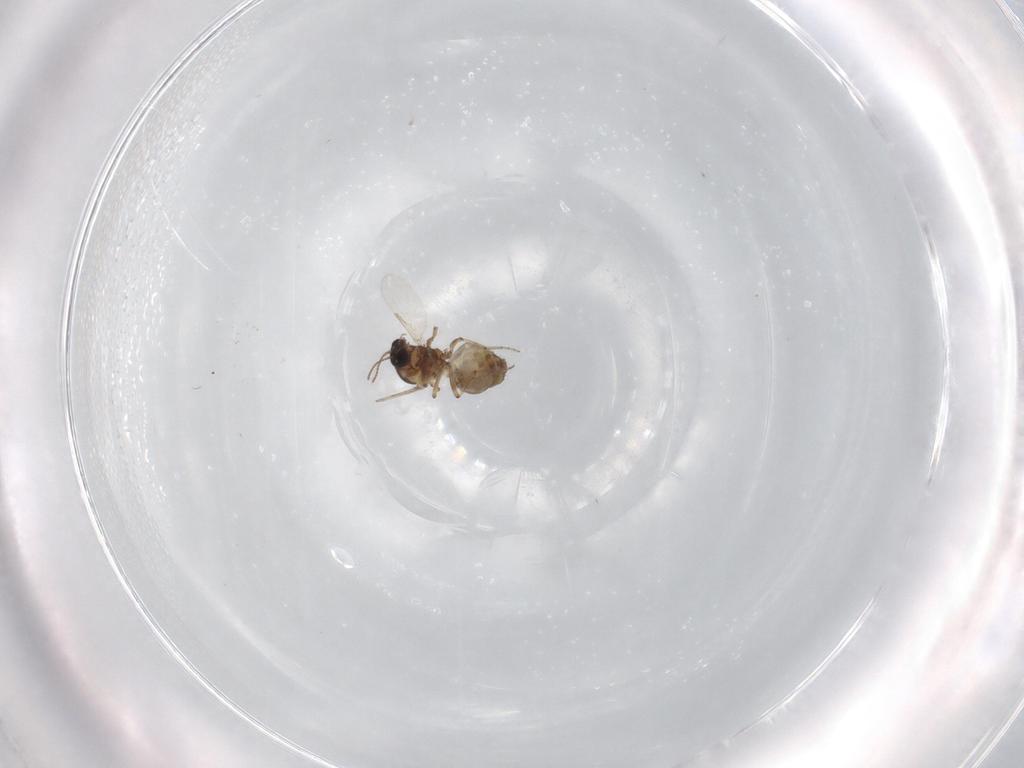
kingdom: Animalia
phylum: Arthropoda
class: Insecta
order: Diptera
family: Ceratopogonidae
